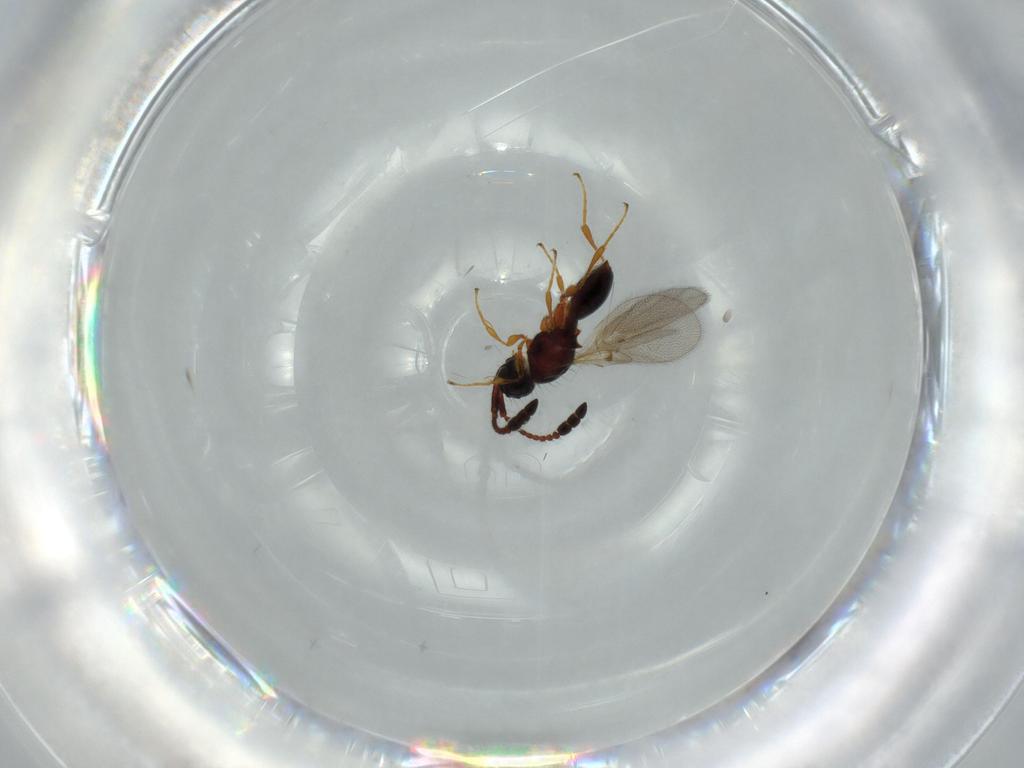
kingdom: Animalia
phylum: Arthropoda
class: Insecta
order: Hymenoptera
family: Diapriidae
